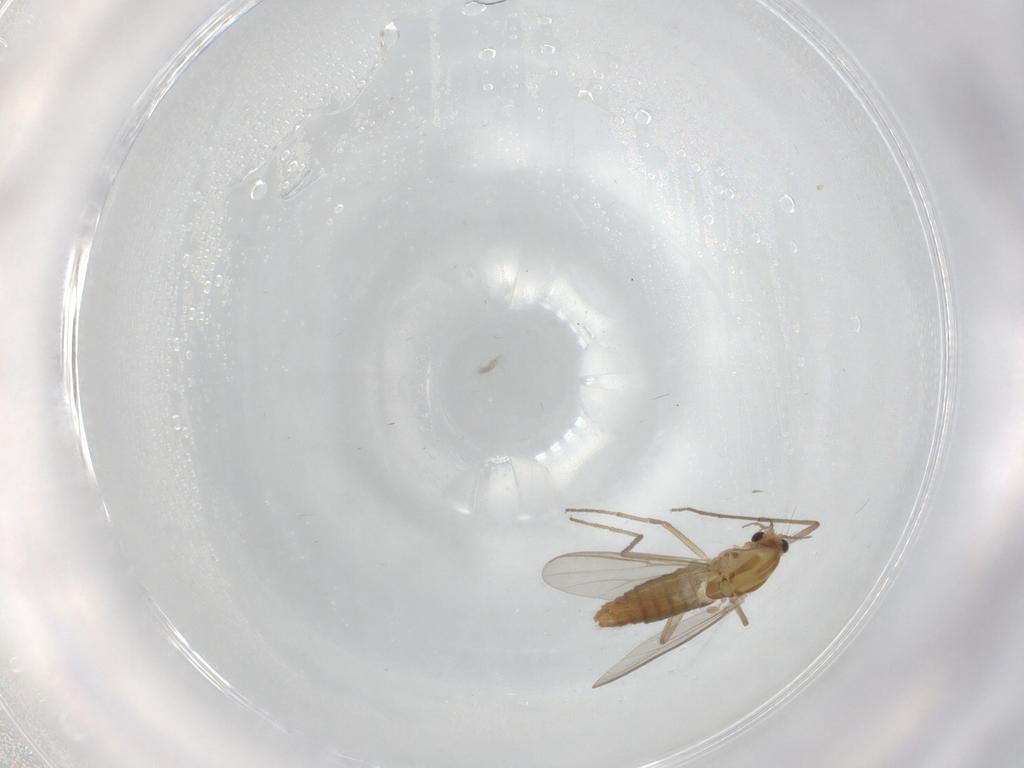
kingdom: Animalia
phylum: Arthropoda
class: Insecta
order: Diptera
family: Chironomidae
